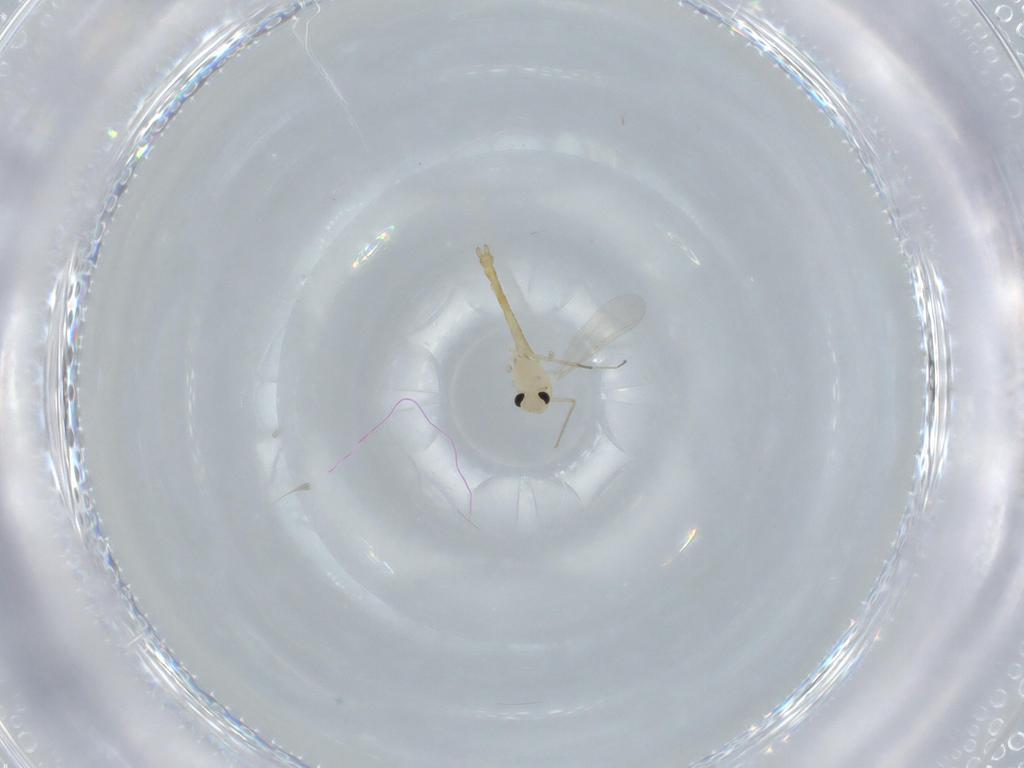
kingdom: Animalia
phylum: Arthropoda
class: Insecta
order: Diptera
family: Chironomidae
